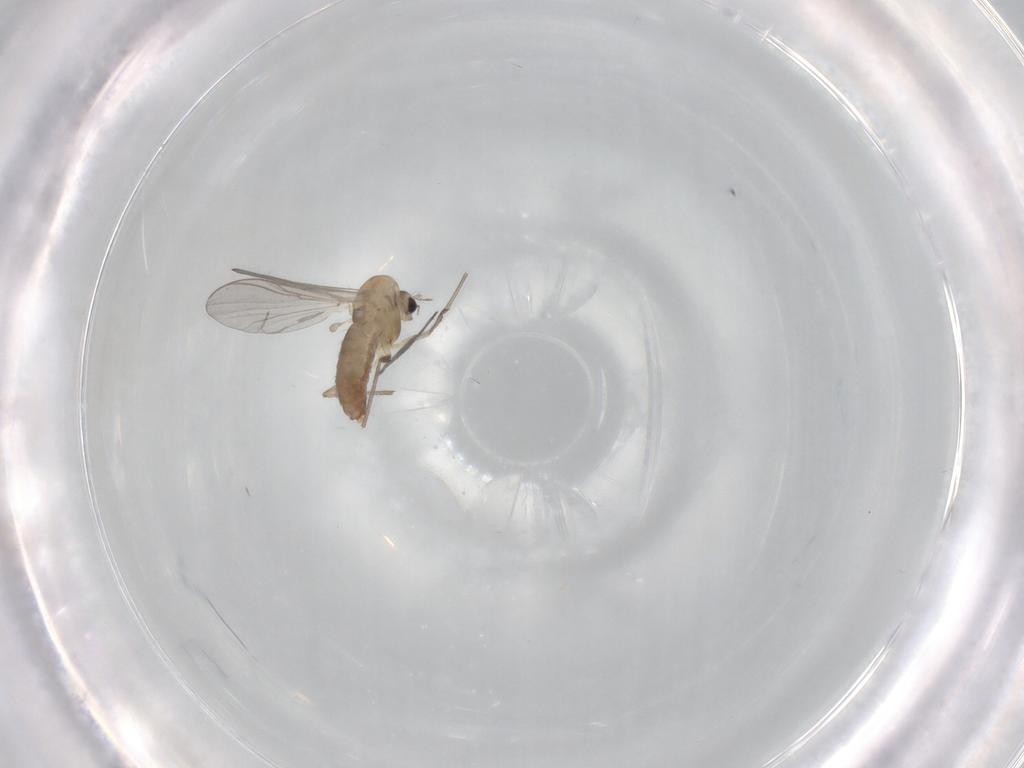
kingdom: Animalia
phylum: Arthropoda
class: Insecta
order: Diptera
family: Chironomidae
